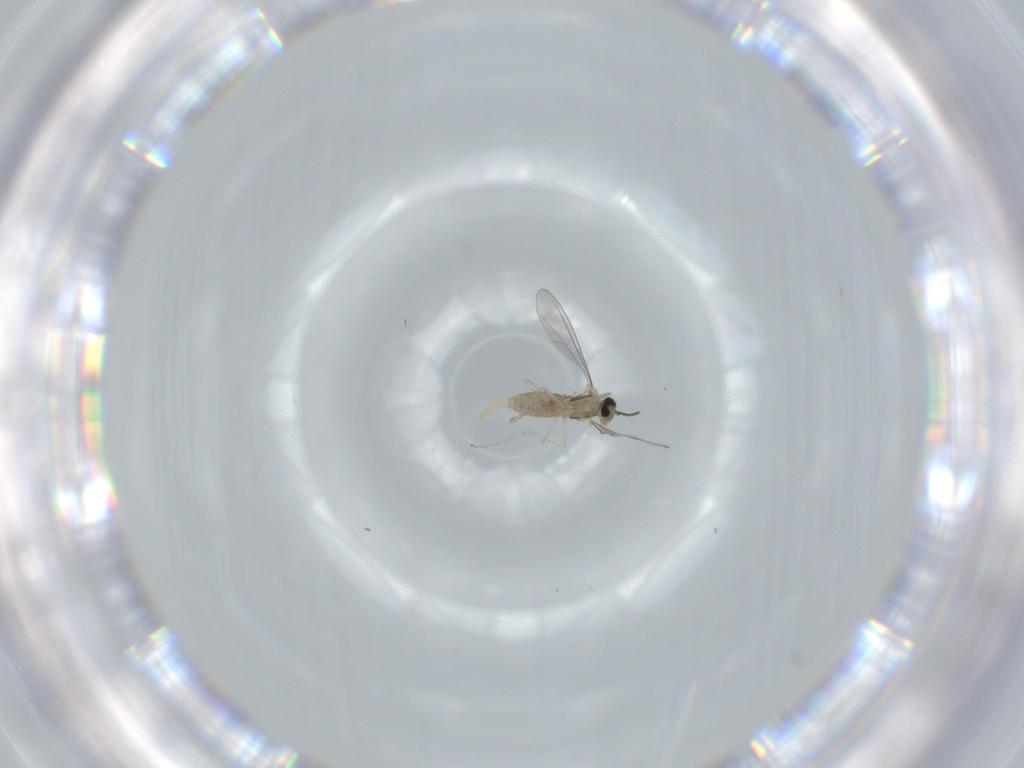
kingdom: Animalia
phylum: Arthropoda
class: Insecta
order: Diptera
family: Cecidomyiidae
